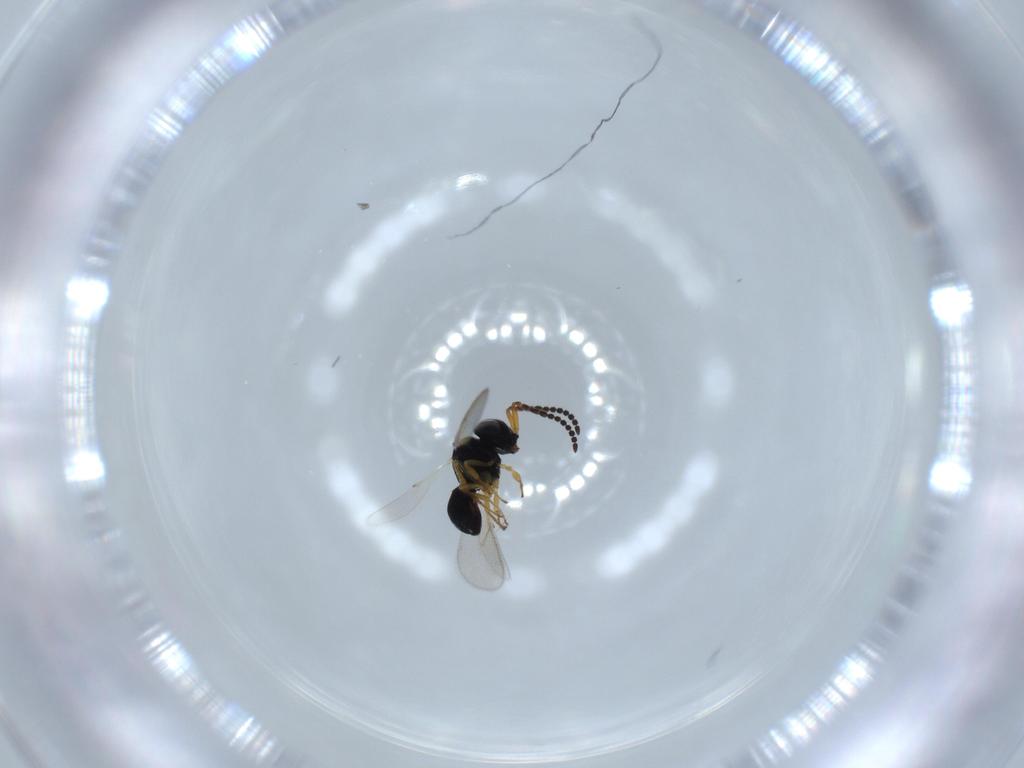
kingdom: Animalia
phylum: Arthropoda
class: Insecta
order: Hymenoptera
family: Scelionidae
